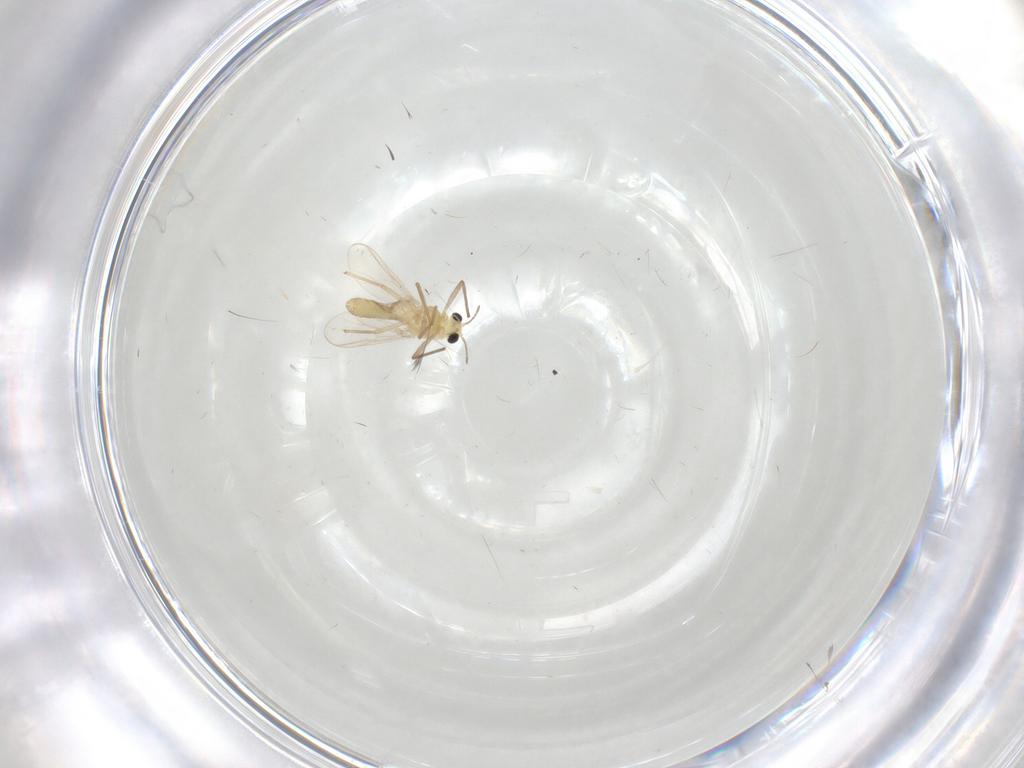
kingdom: Animalia
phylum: Arthropoda
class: Insecta
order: Diptera
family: Chironomidae
